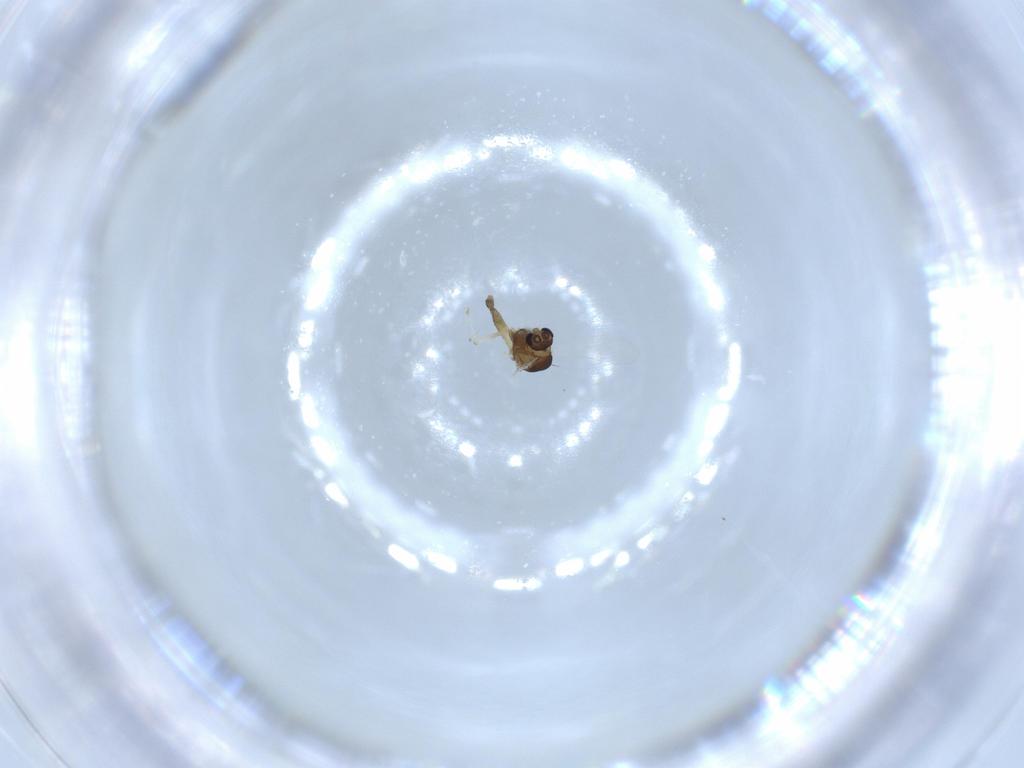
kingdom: Animalia
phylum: Arthropoda
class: Insecta
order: Diptera
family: Chironomidae
